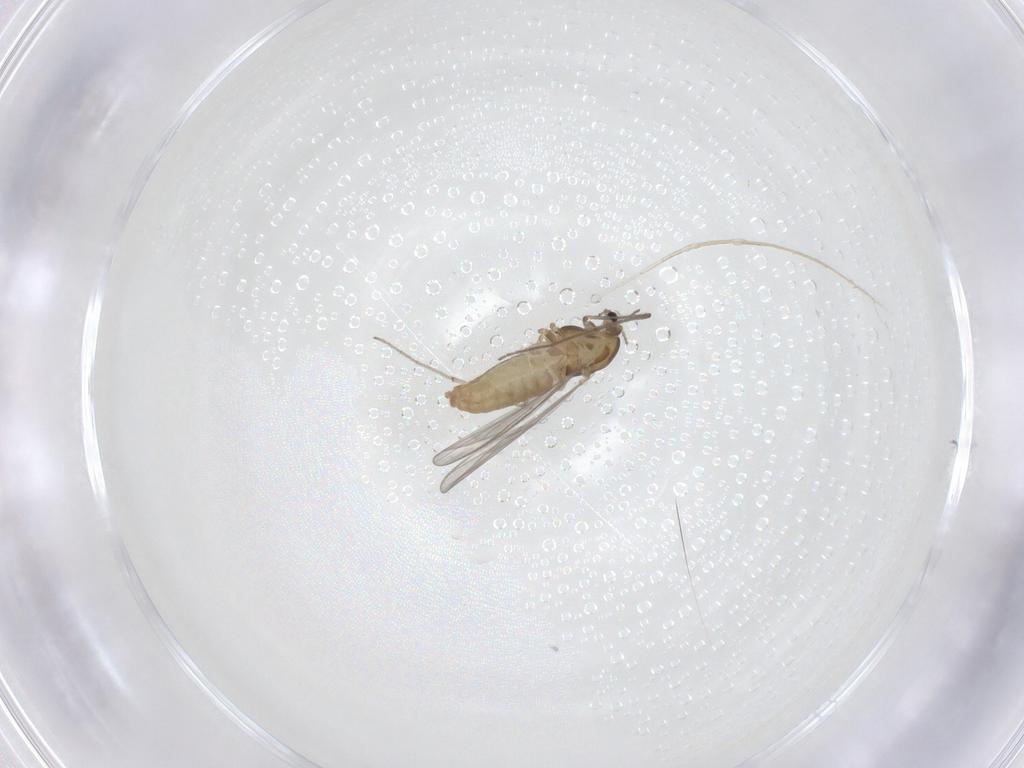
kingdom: Animalia
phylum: Arthropoda
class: Insecta
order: Diptera
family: Chironomidae
